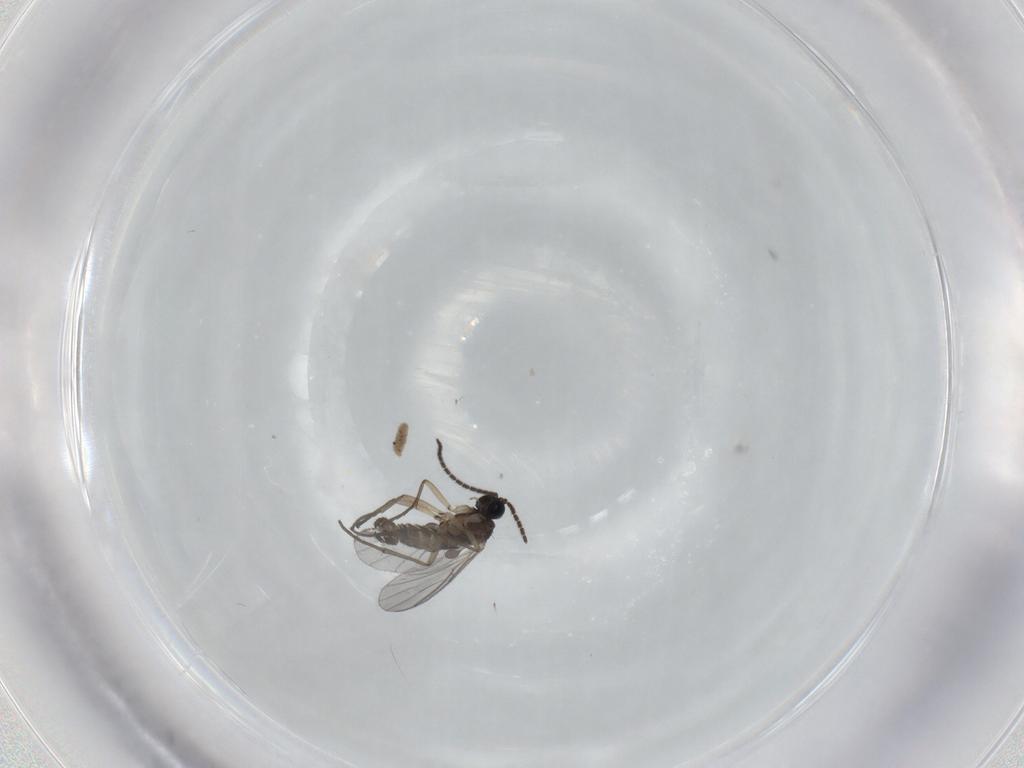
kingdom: Animalia
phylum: Arthropoda
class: Insecta
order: Diptera
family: Sciaridae
